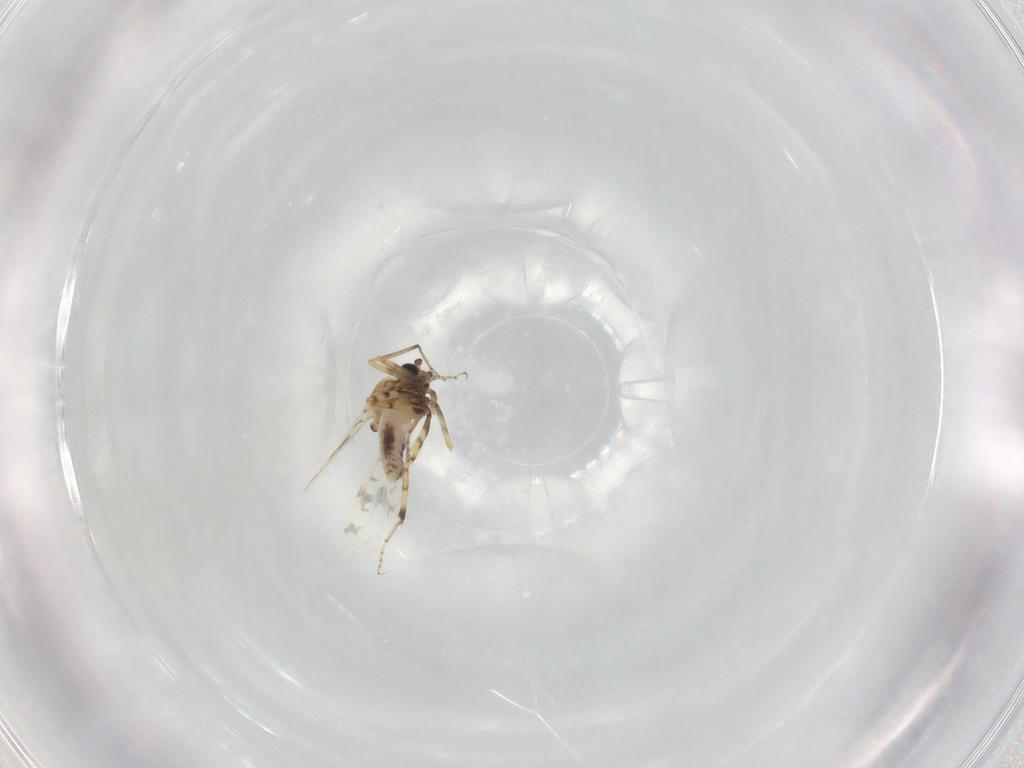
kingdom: Animalia
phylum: Arthropoda
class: Insecta
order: Diptera
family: Ceratopogonidae
